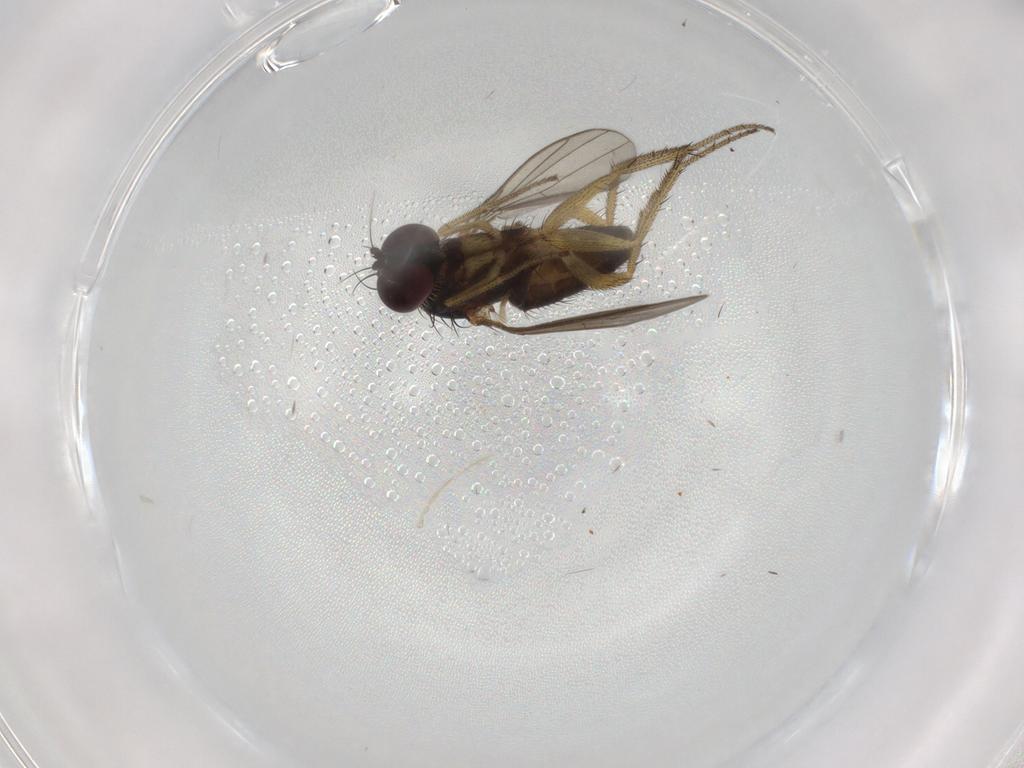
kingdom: Animalia
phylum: Arthropoda
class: Insecta
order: Diptera
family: Dolichopodidae
